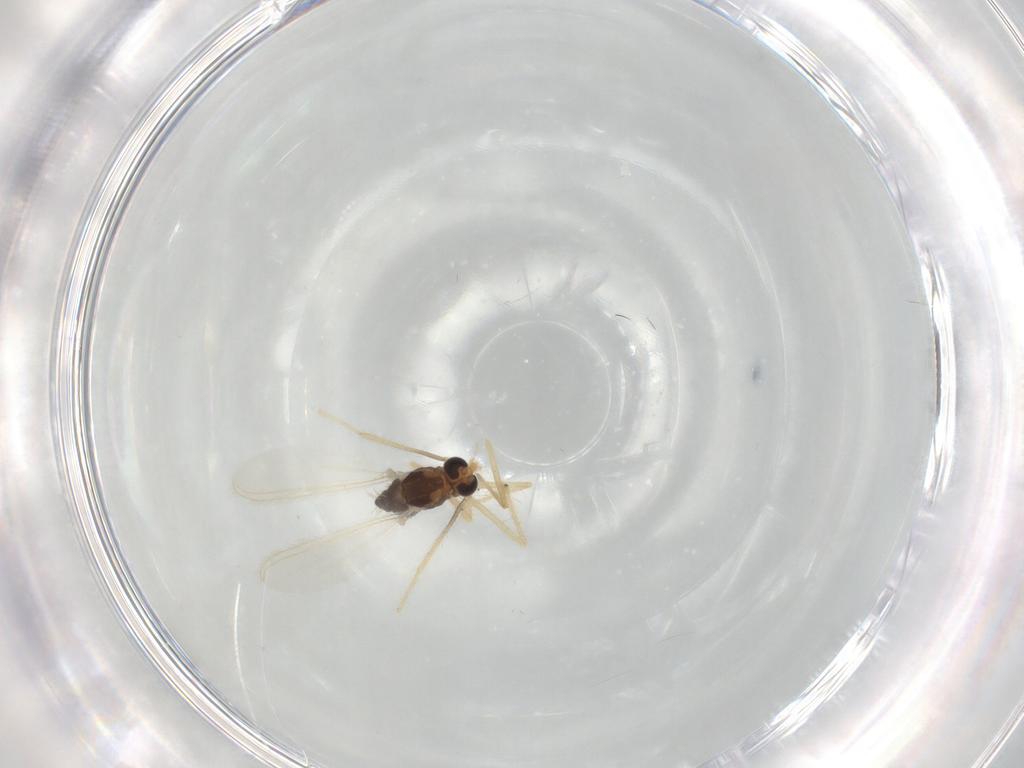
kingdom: Animalia
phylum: Arthropoda
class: Insecta
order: Diptera
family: Chironomidae
